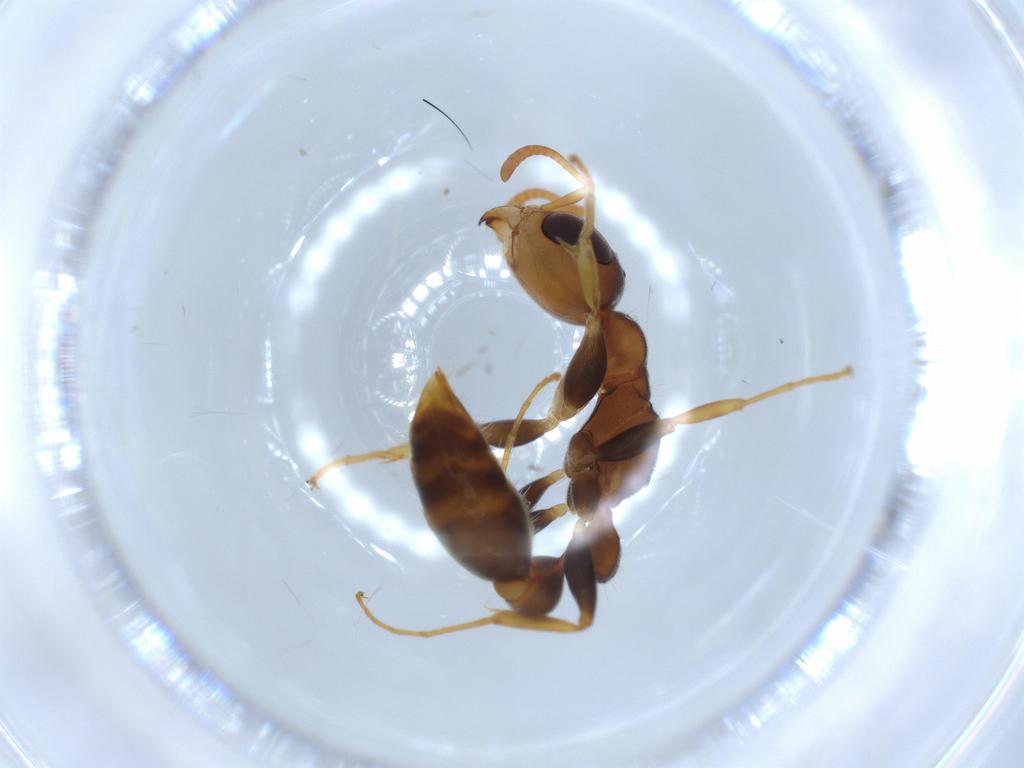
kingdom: Animalia
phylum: Arthropoda
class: Insecta
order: Hymenoptera
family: Formicidae
